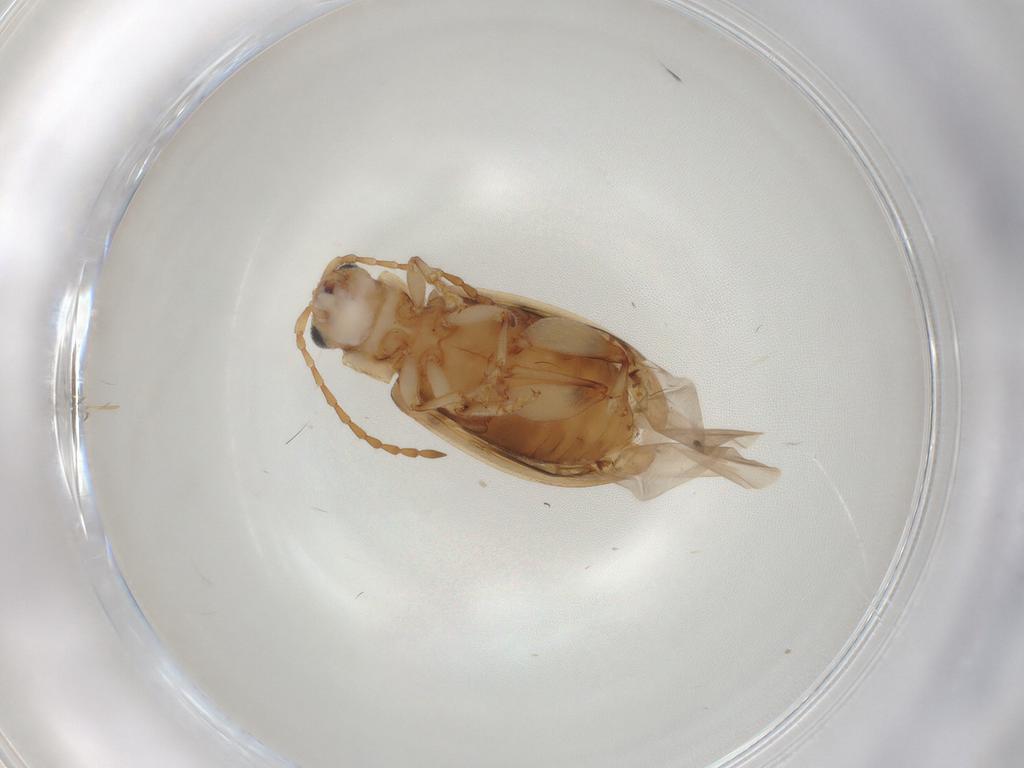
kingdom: Animalia
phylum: Arthropoda
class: Insecta
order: Coleoptera
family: Chrysomelidae
